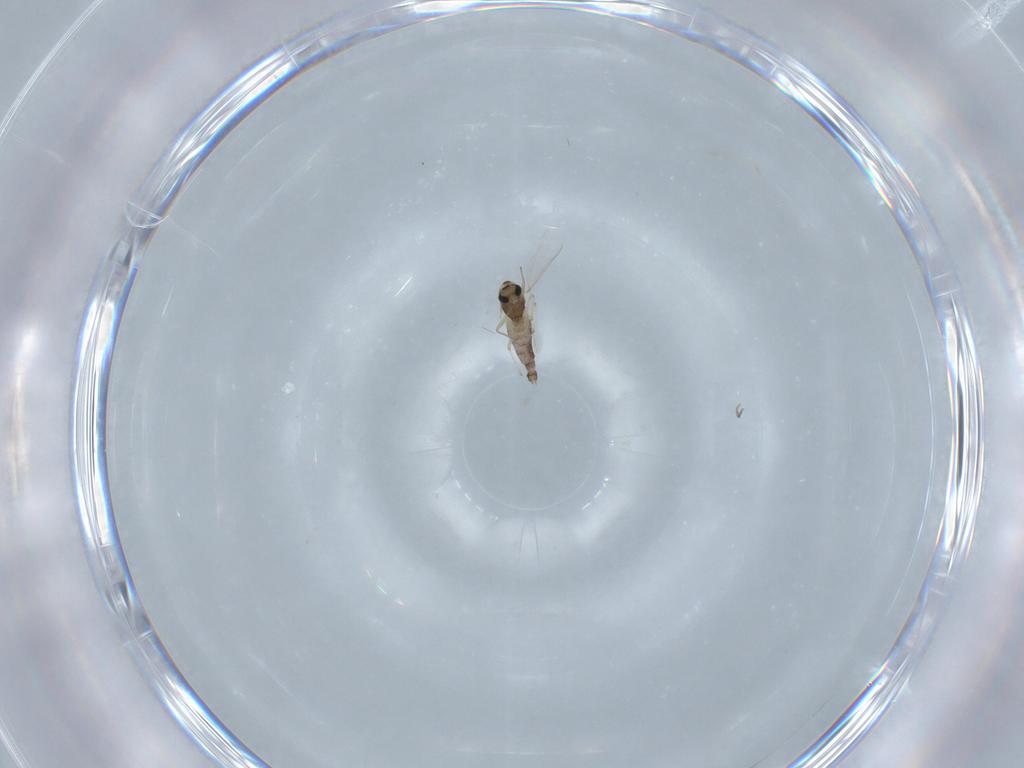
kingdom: Animalia
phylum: Arthropoda
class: Insecta
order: Diptera
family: Chironomidae
